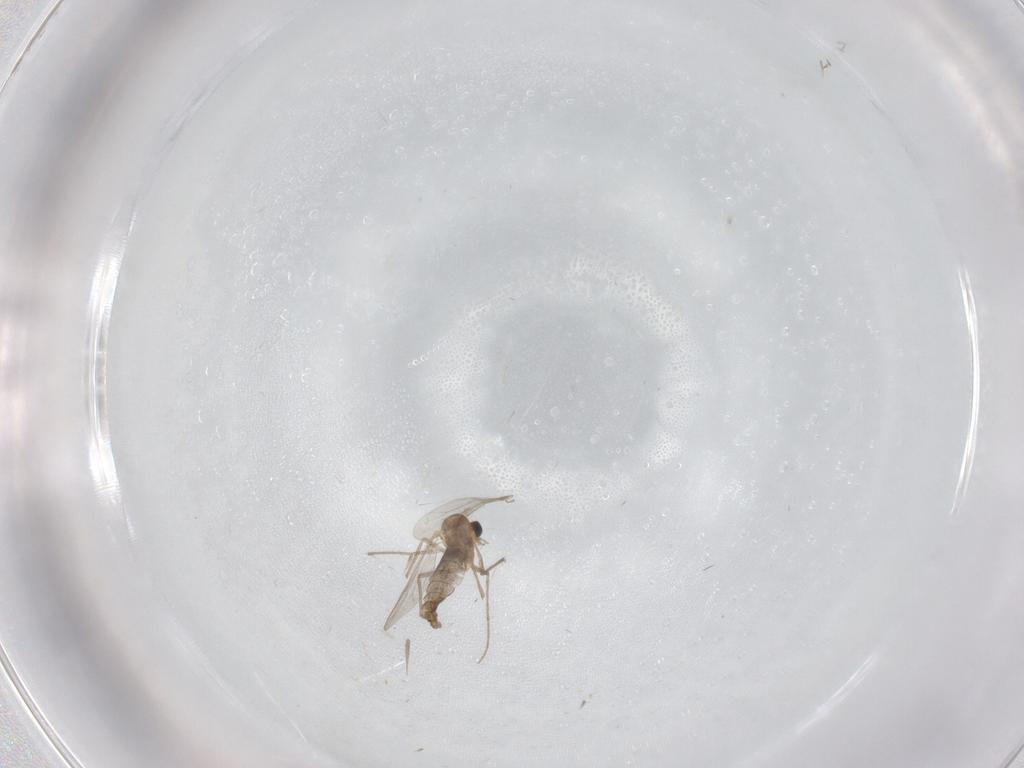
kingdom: Animalia
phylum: Arthropoda
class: Insecta
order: Diptera
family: Chironomidae
